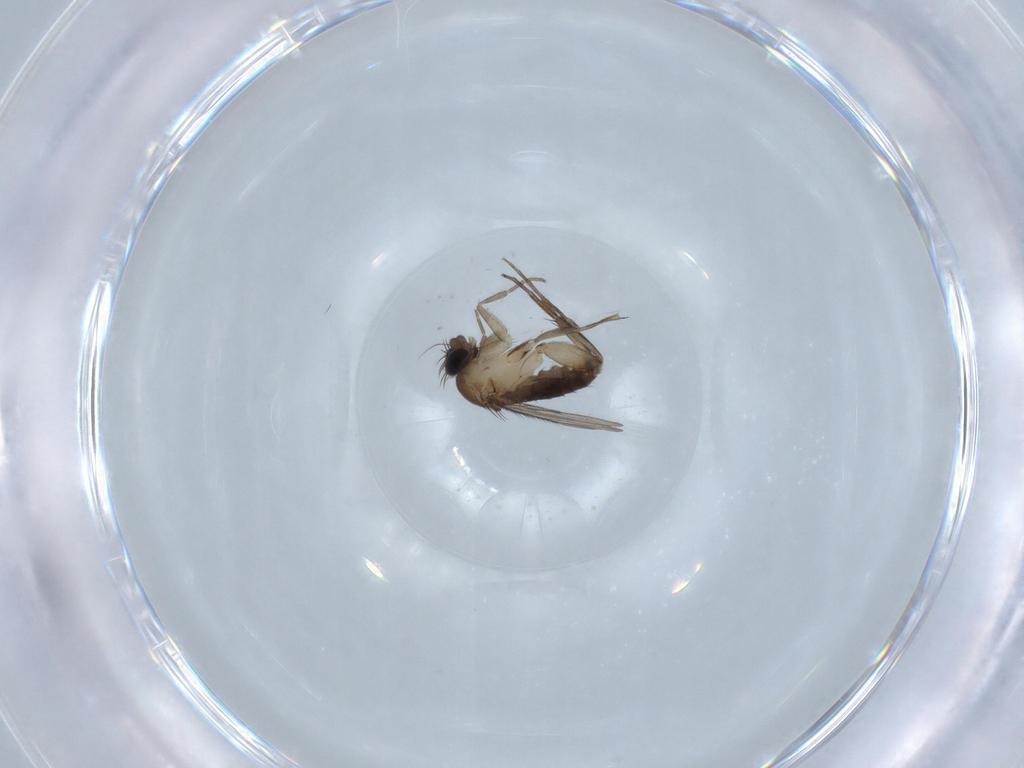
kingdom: Animalia
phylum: Arthropoda
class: Insecta
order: Diptera
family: Phoridae
